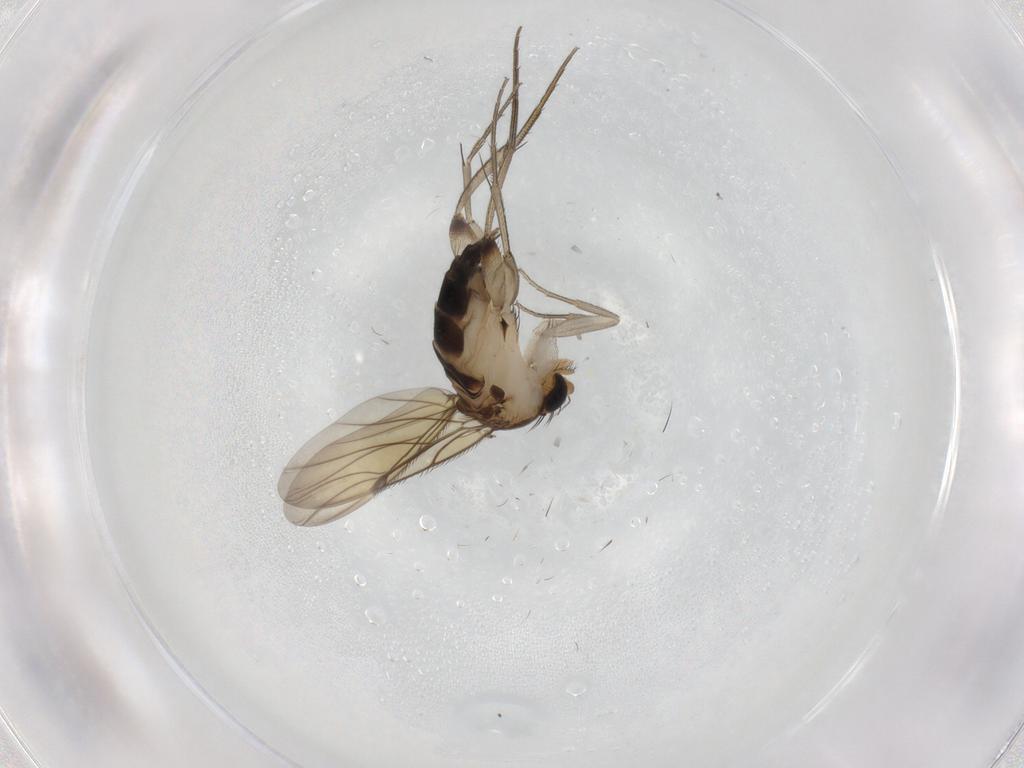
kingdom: Animalia
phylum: Arthropoda
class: Insecta
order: Diptera
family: Phoridae
